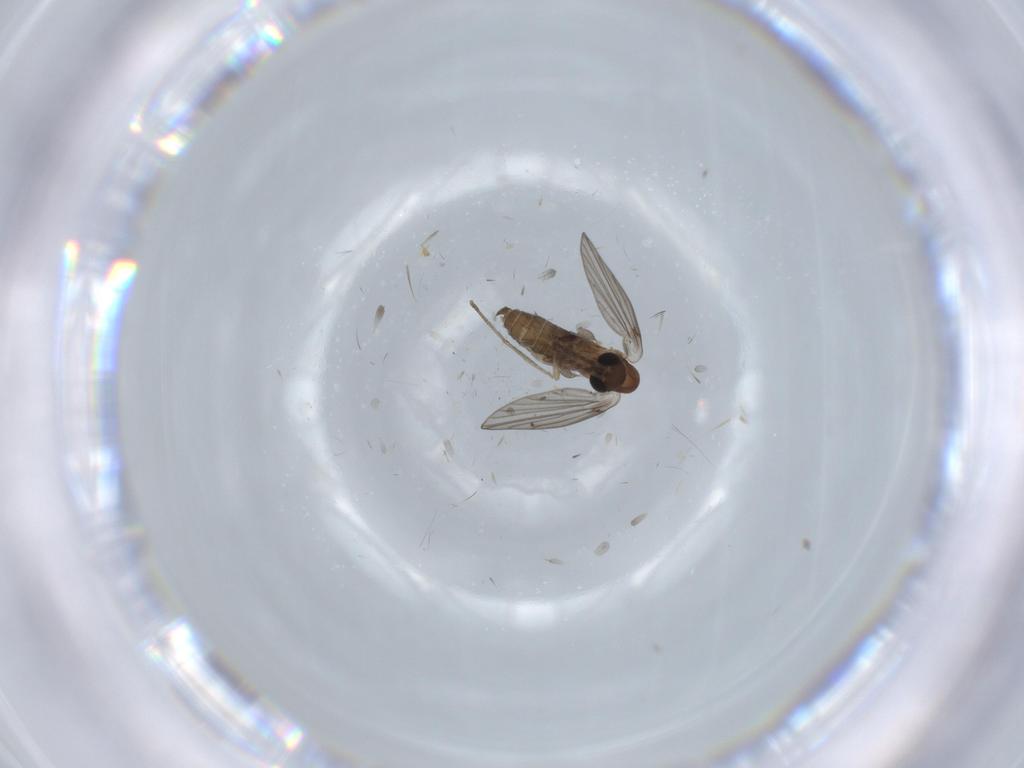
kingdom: Animalia
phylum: Arthropoda
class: Insecta
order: Diptera
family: Psychodidae
